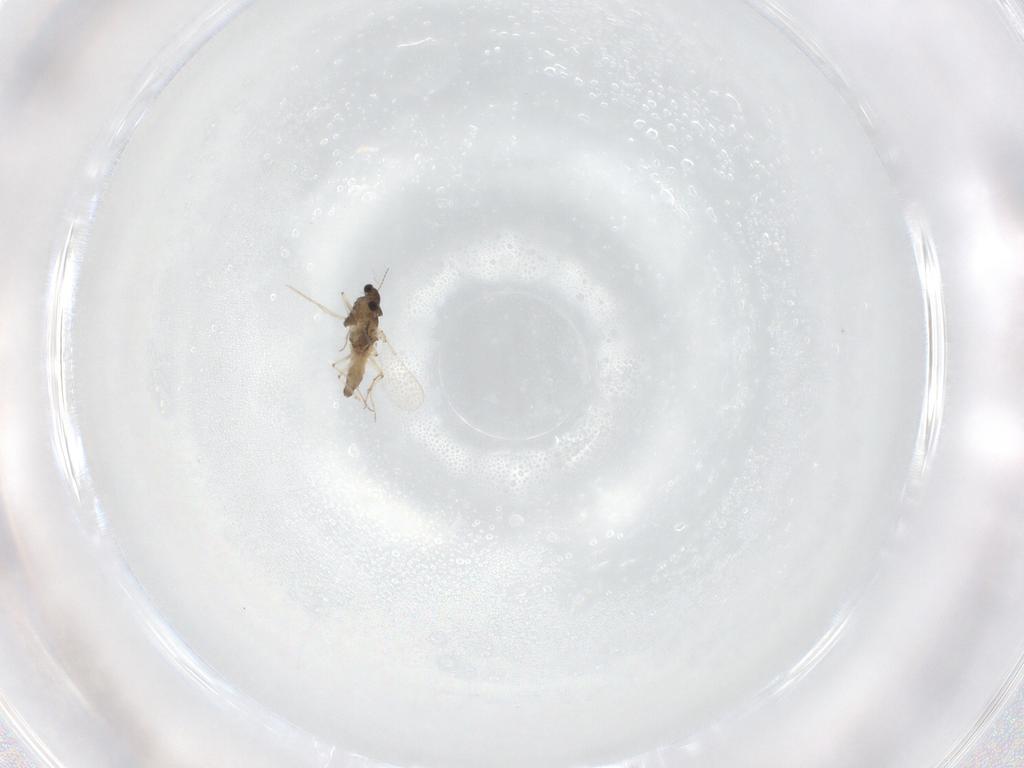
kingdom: Animalia
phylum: Arthropoda
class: Insecta
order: Diptera
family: Chironomidae
